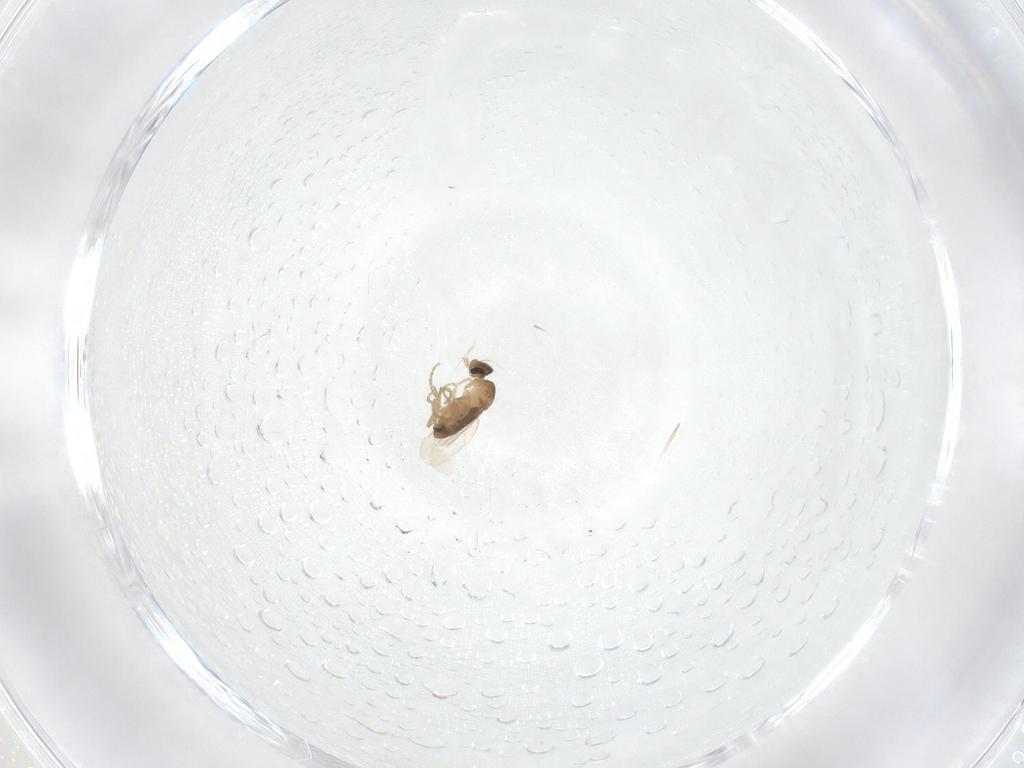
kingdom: Animalia
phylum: Arthropoda
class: Insecta
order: Diptera
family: Phoridae
